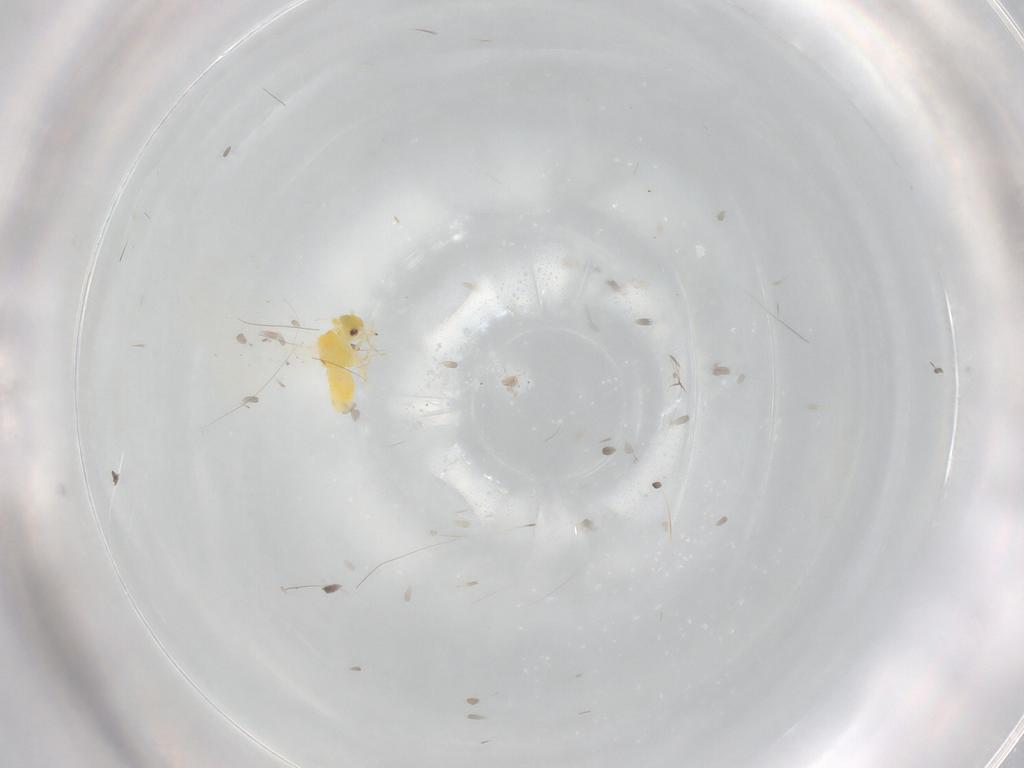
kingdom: Animalia
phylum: Arthropoda
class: Insecta
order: Hemiptera
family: Aleyrodidae
